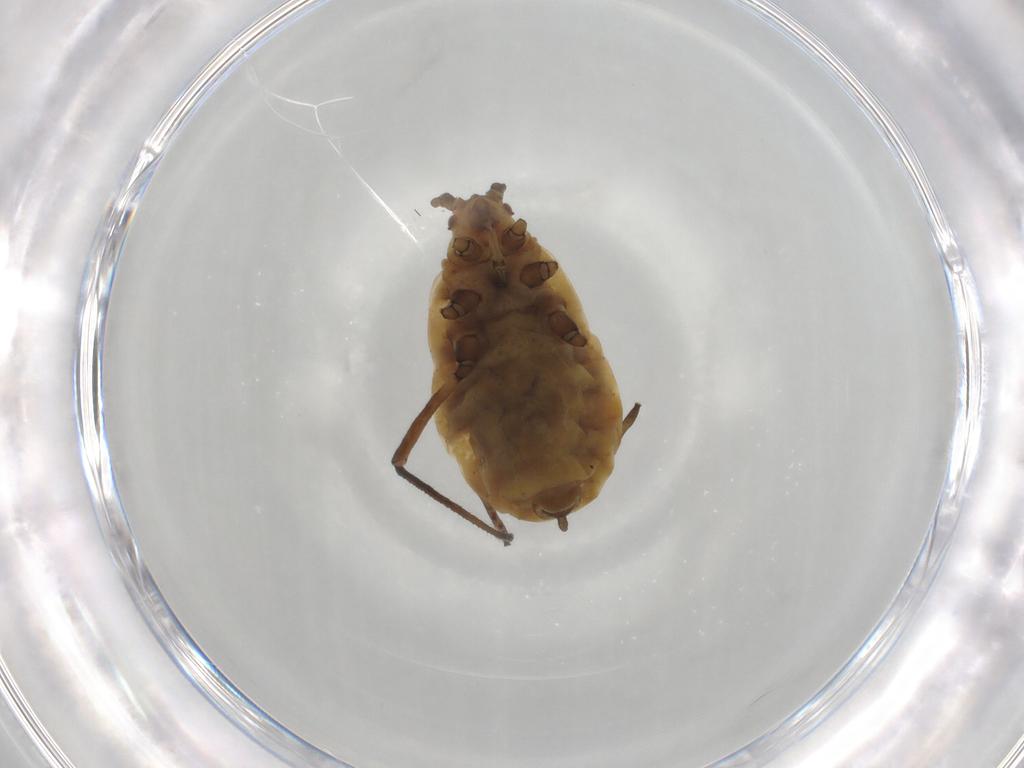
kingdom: Animalia
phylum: Arthropoda
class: Insecta
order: Hemiptera
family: Aphididae
